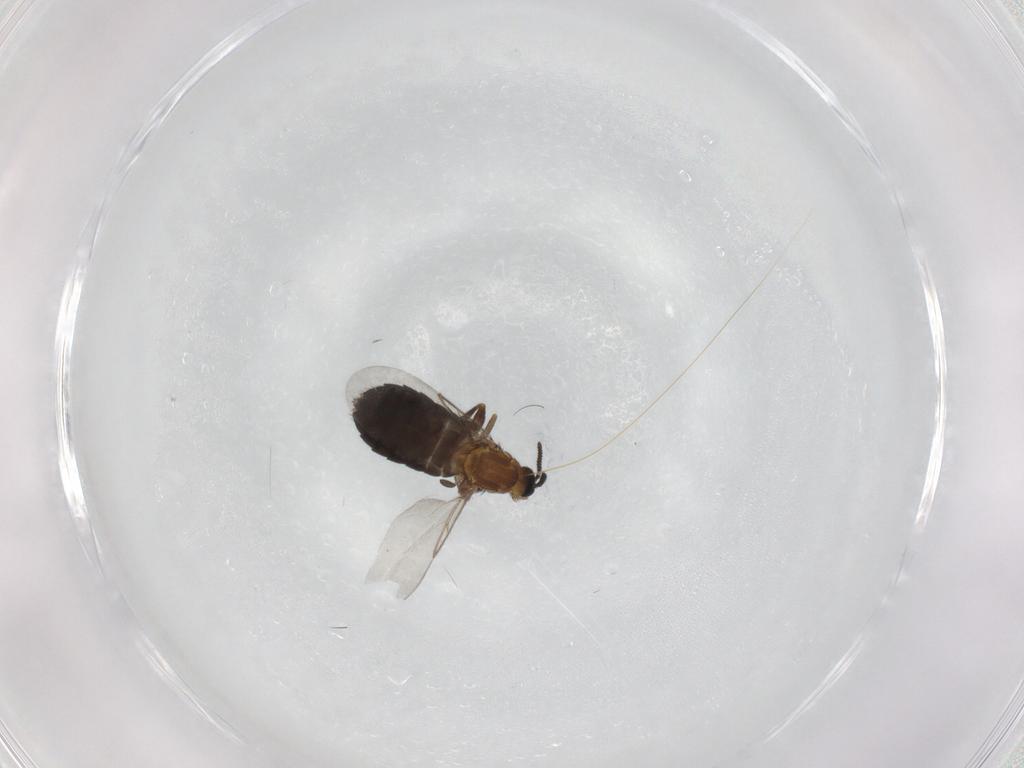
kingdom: Animalia
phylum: Arthropoda
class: Insecta
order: Diptera
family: Scatopsidae
